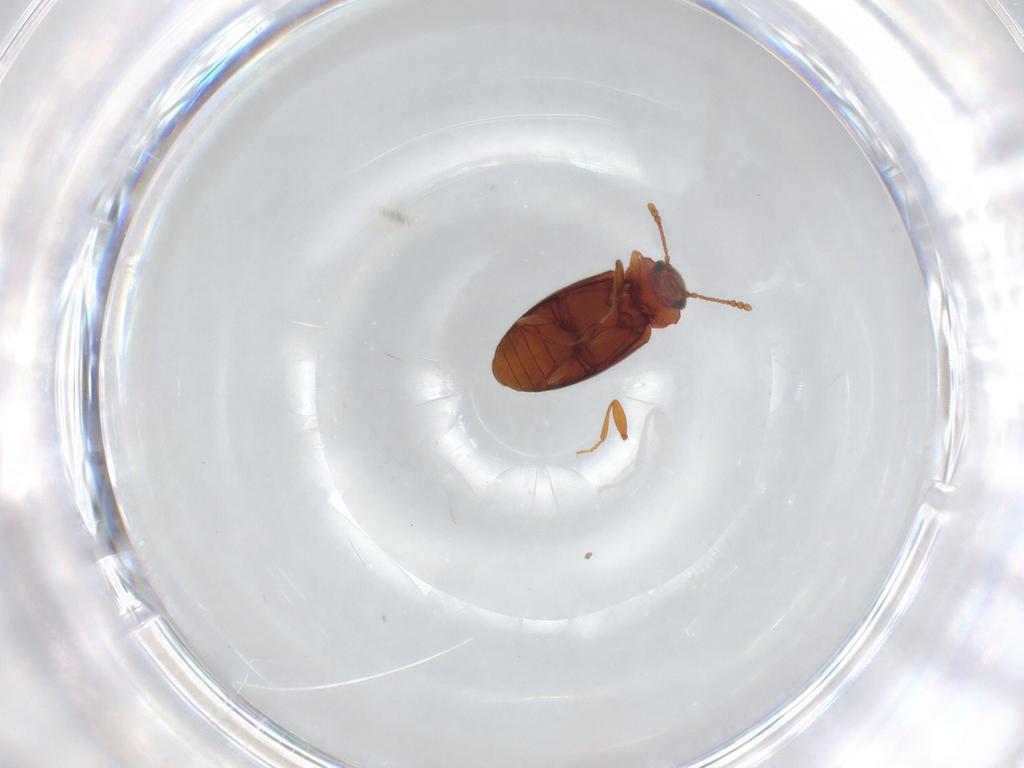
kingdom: Animalia
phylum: Arthropoda
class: Insecta
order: Coleoptera
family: Cryptophagidae
